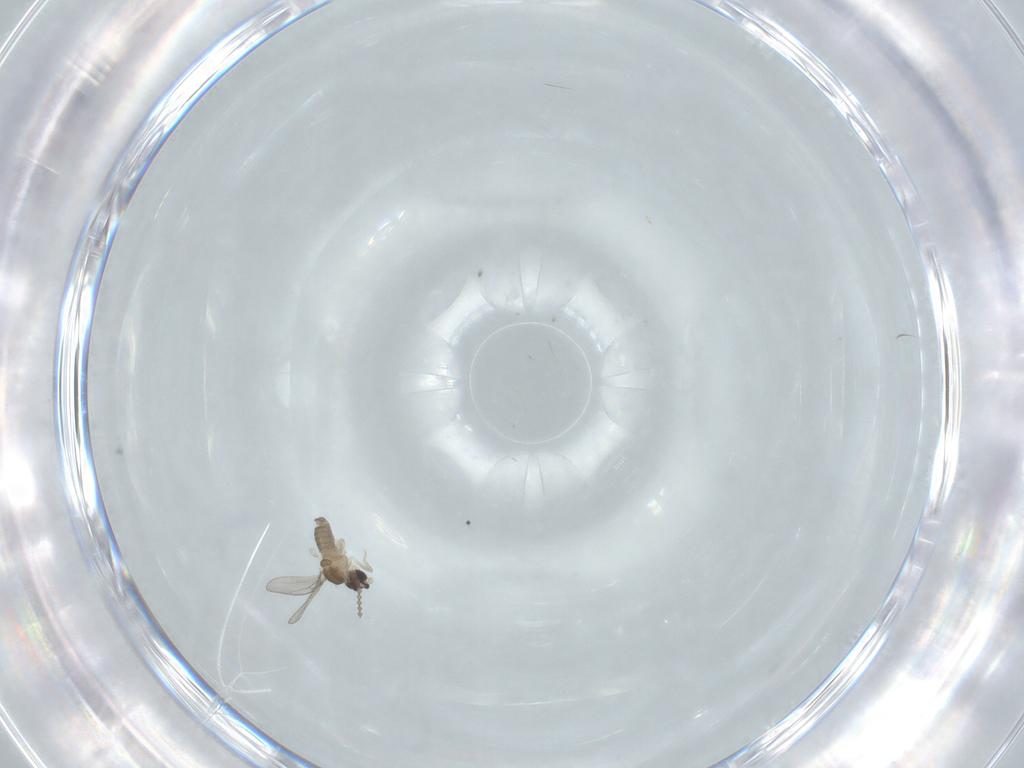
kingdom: Animalia
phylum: Arthropoda
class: Insecta
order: Diptera
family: Cecidomyiidae
